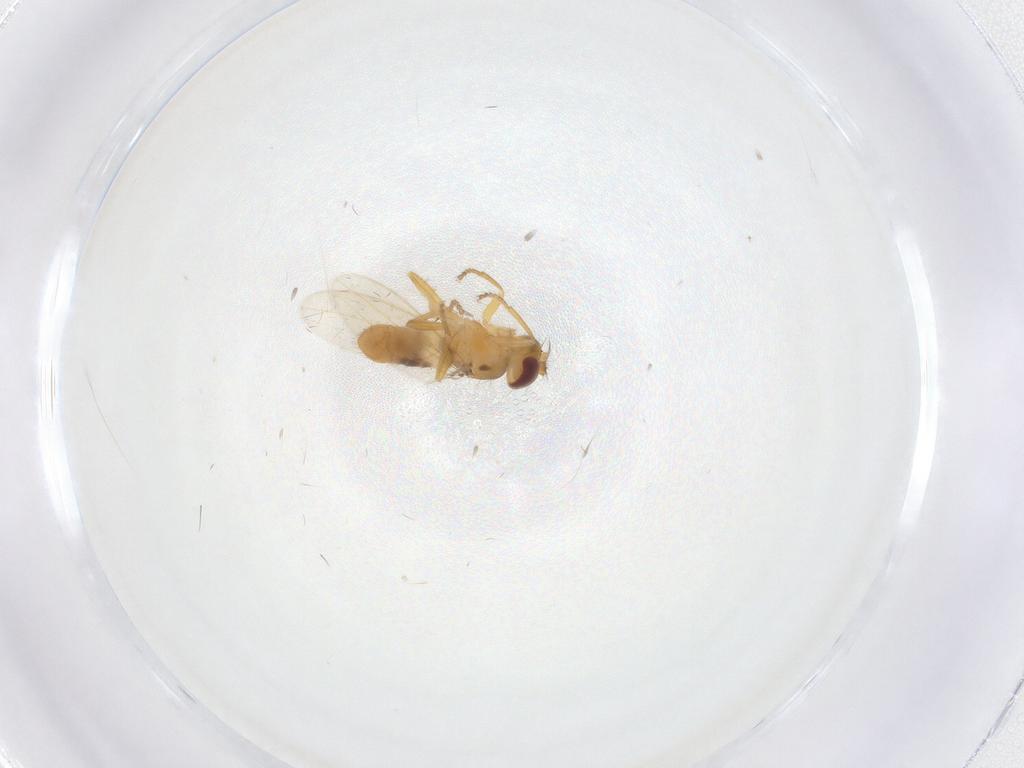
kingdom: Animalia
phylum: Arthropoda
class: Insecta
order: Diptera
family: Periscelididae
